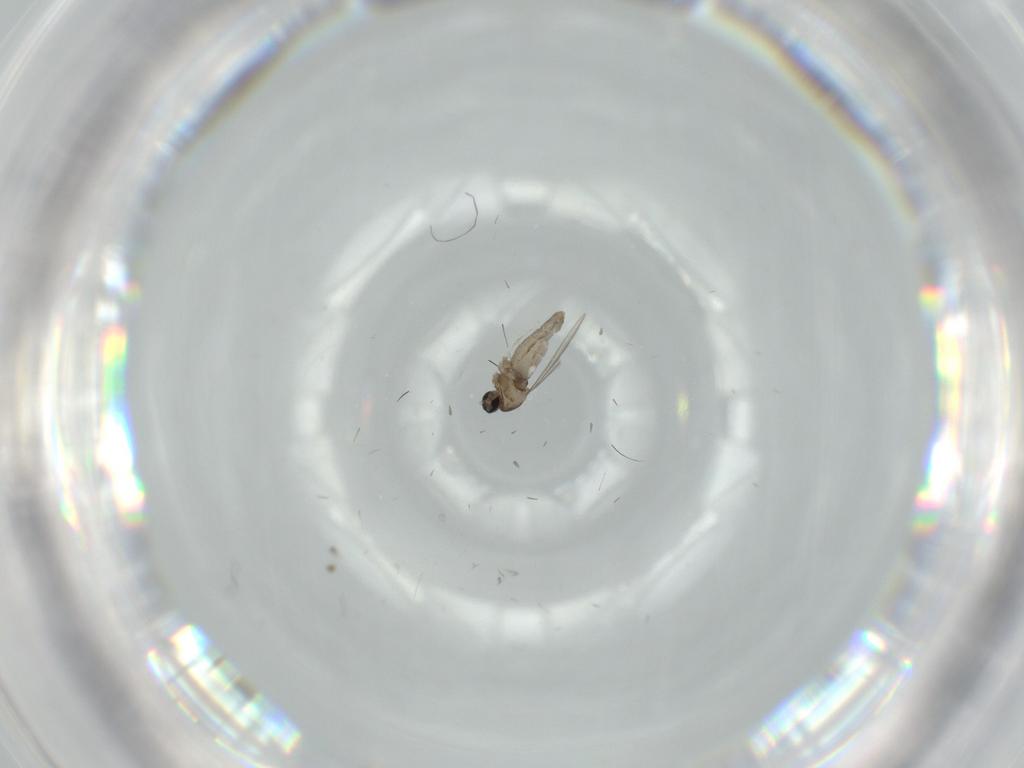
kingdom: Animalia
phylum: Arthropoda
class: Insecta
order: Diptera
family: Cecidomyiidae
